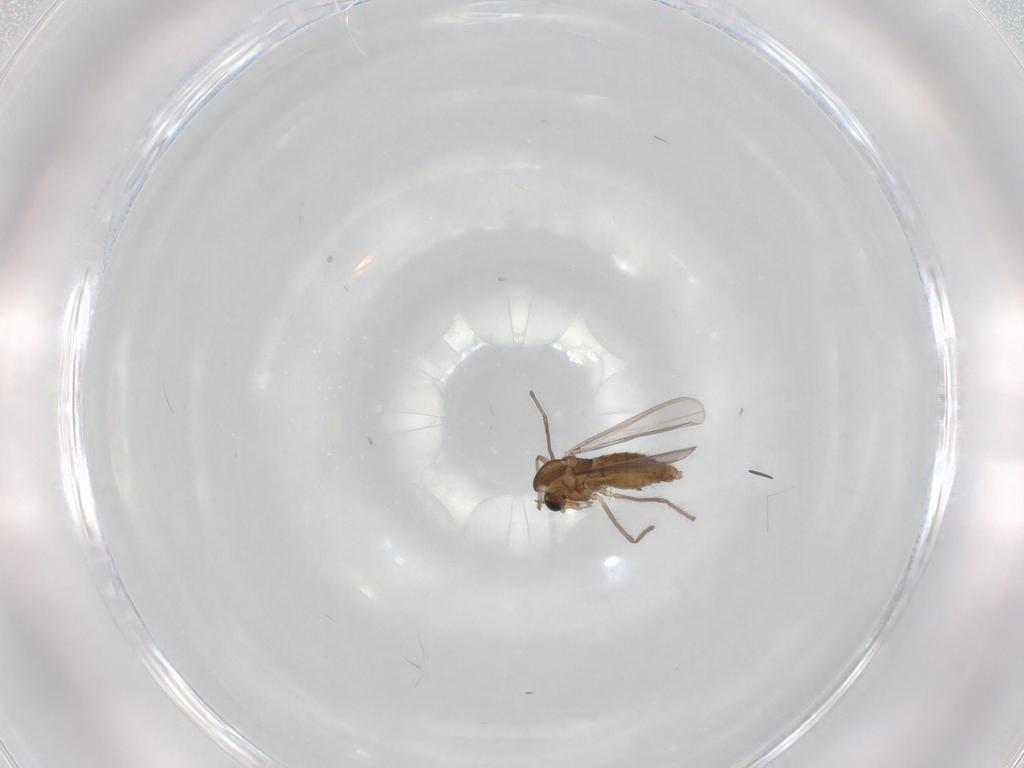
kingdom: Animalia
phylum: Arthropoda
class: Insecta
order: Diptera
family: Chironomidae
